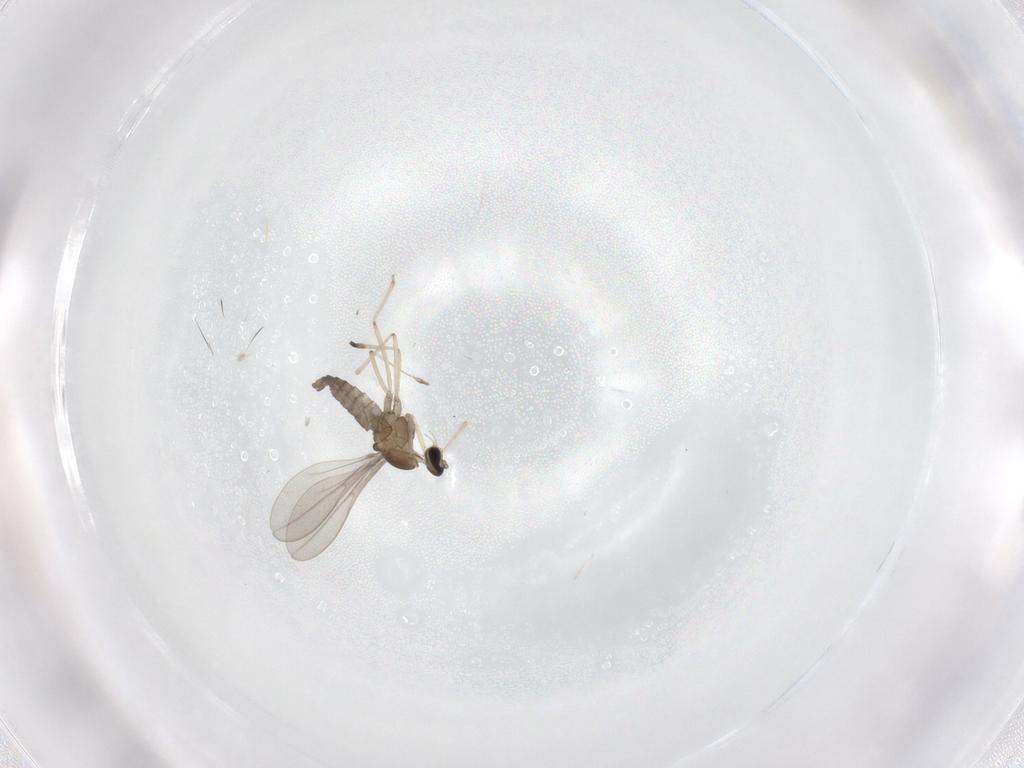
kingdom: Animalia
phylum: Arthropoda
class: Insecta
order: Diptera
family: Cecidomyiidae
